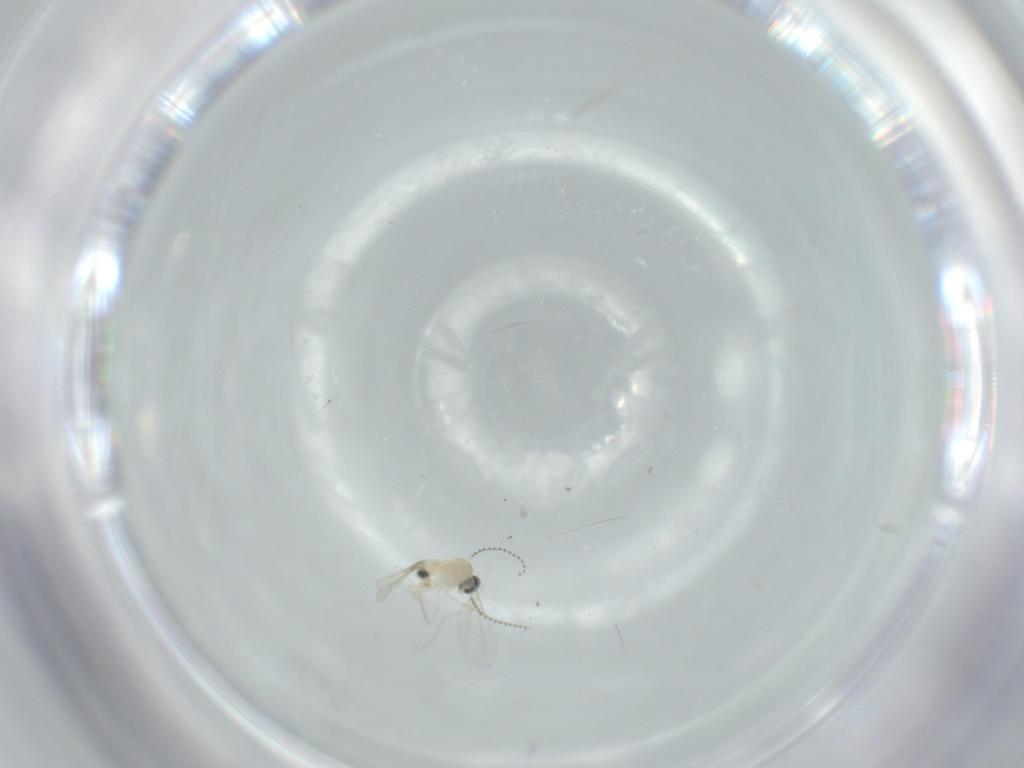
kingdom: Animalia
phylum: Arthropoda
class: Insecta
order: Diptera
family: Cecidomyiidae
